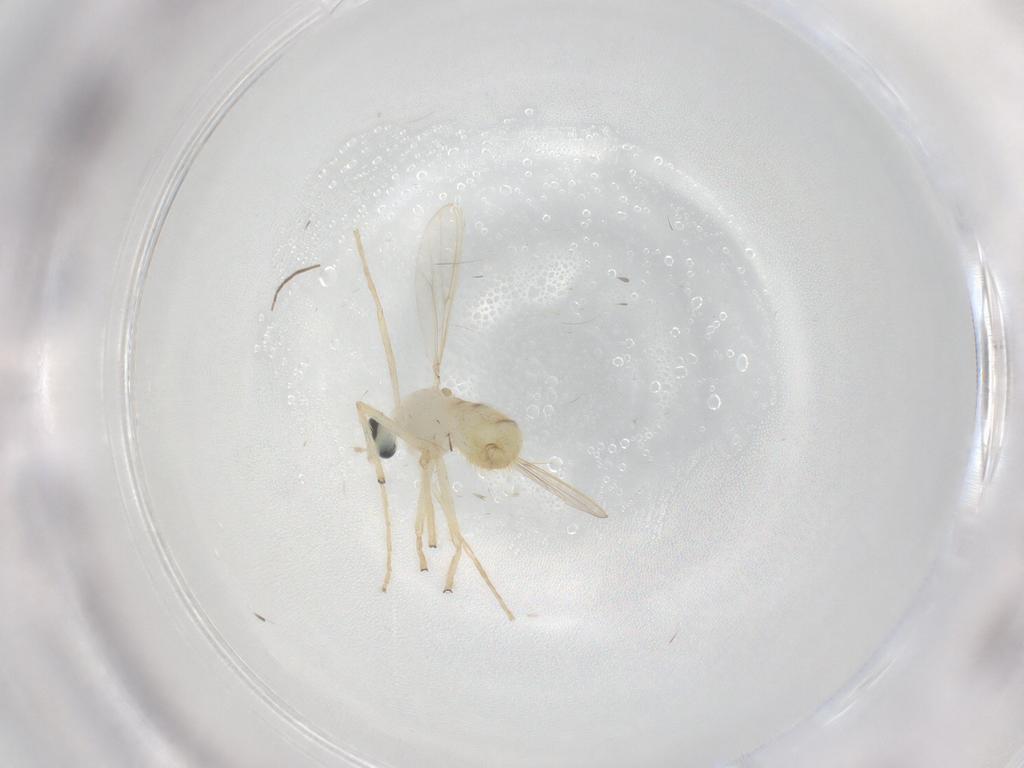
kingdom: Animalia
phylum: Arthropoda
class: Insecta
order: Diptera
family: Chironomidae
